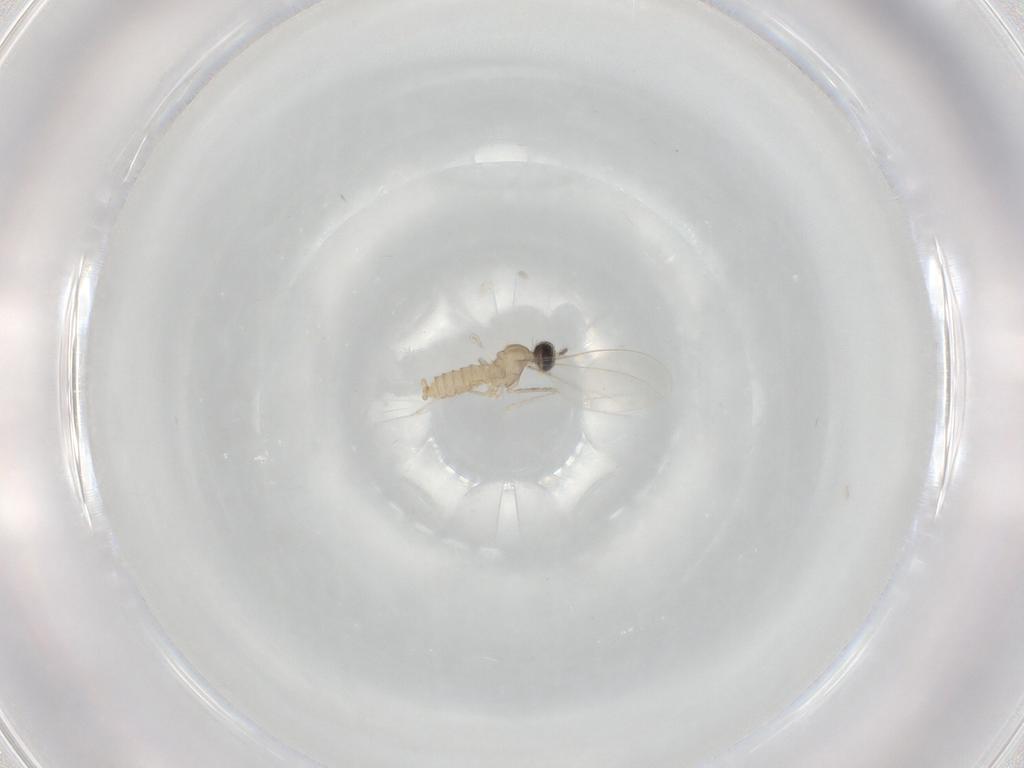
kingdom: Animalia
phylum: Arthropoda
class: Insecta
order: Diptera
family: Cecidomyiidae
